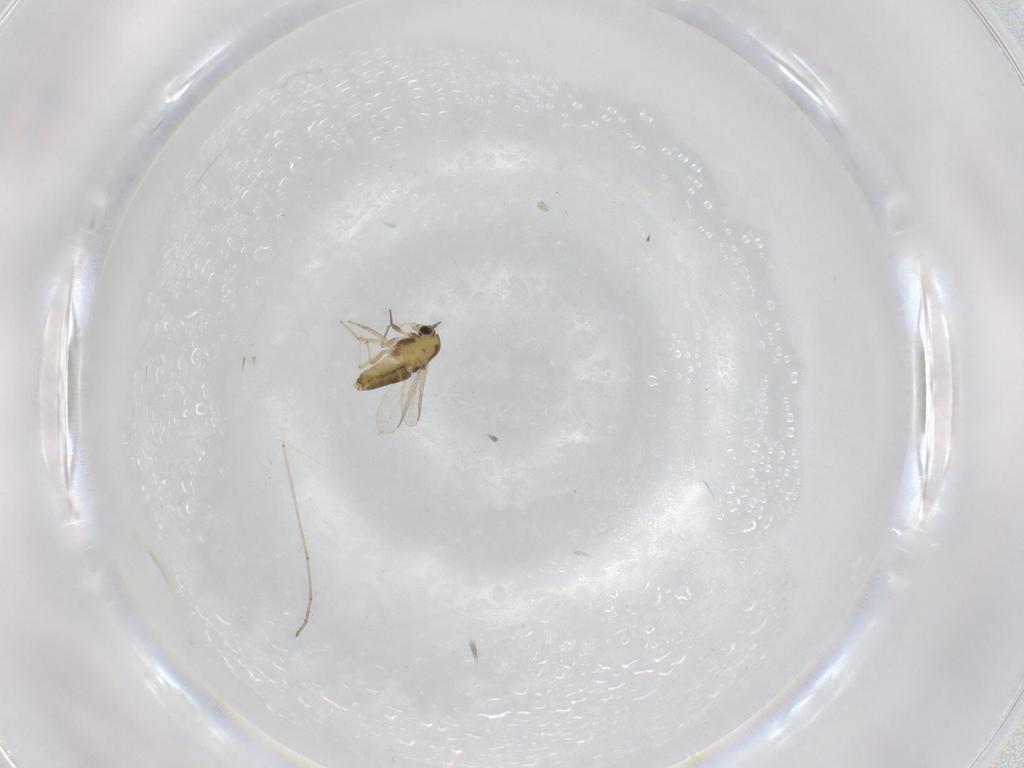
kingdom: Animalia
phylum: Arthropoda
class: Insecta
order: Diptera
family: Chironomidae
